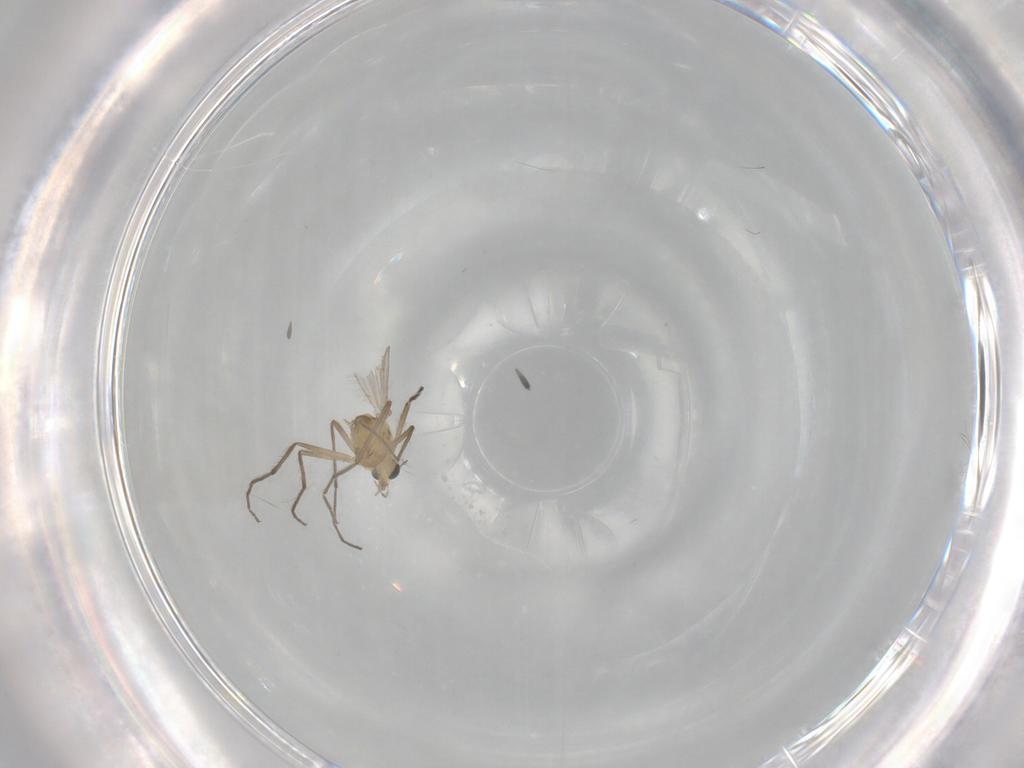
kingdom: Animalia
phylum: Arthropoda
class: Insecta
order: Diptera
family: Chironomidae
